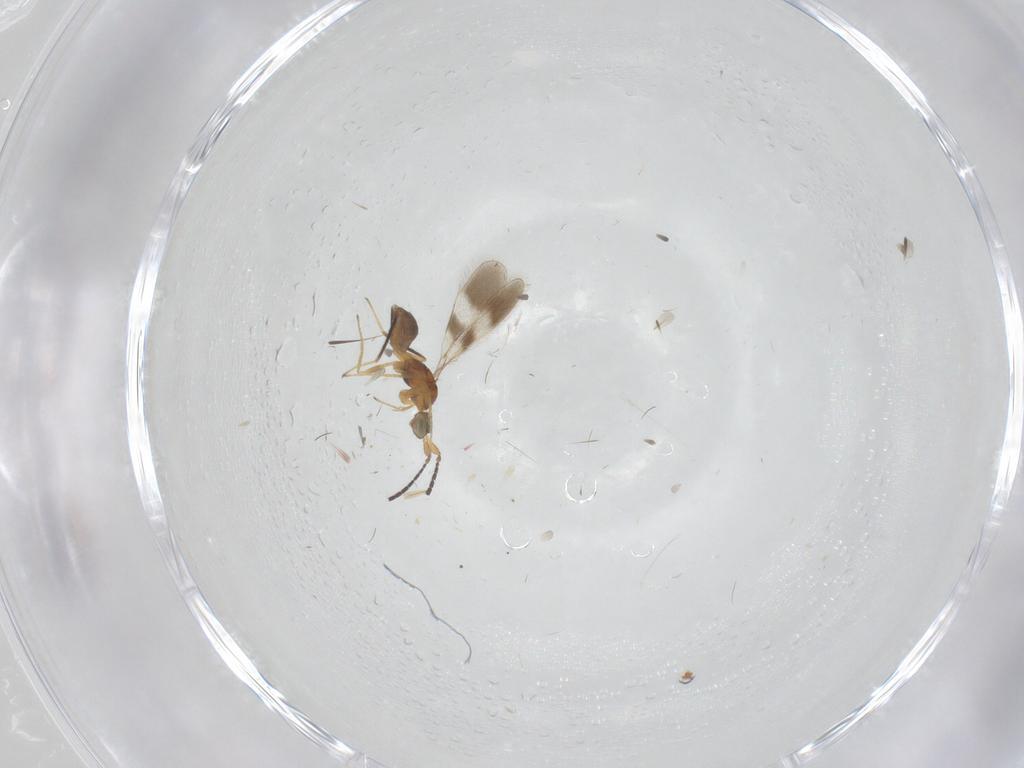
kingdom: Animalia
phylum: Arthropoda
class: Insecta
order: Hymenoptera
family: Mymaridae
